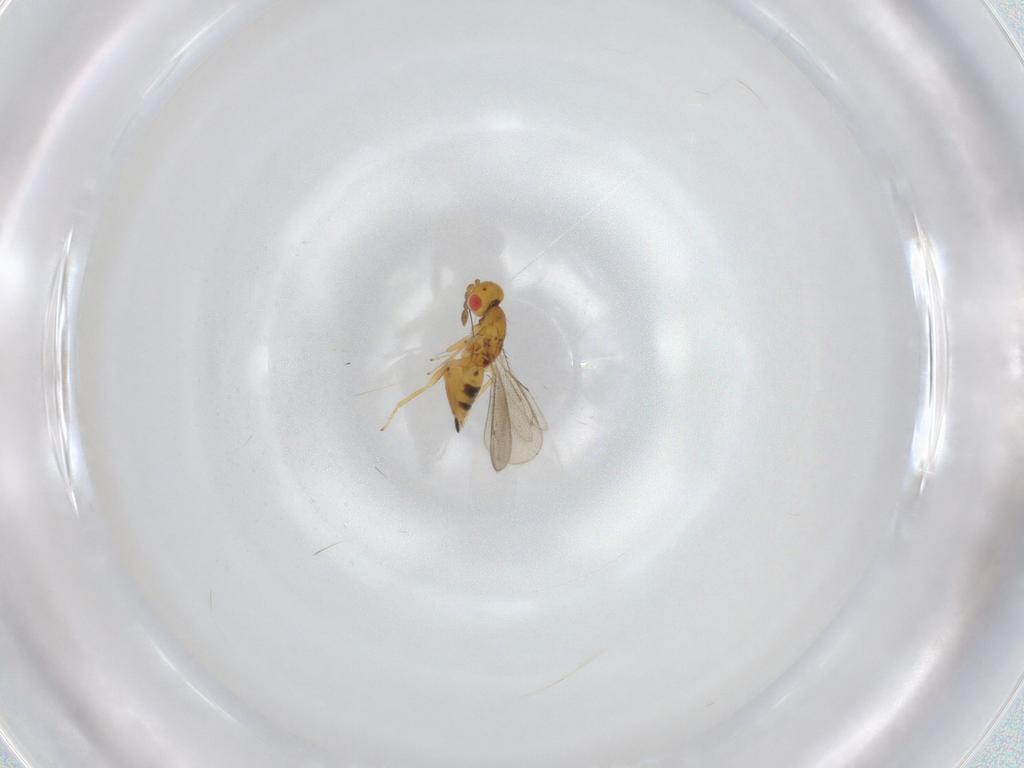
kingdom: Animalia
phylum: Arthropoda
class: Insecta
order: Hymenoptera
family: Eulophidae
